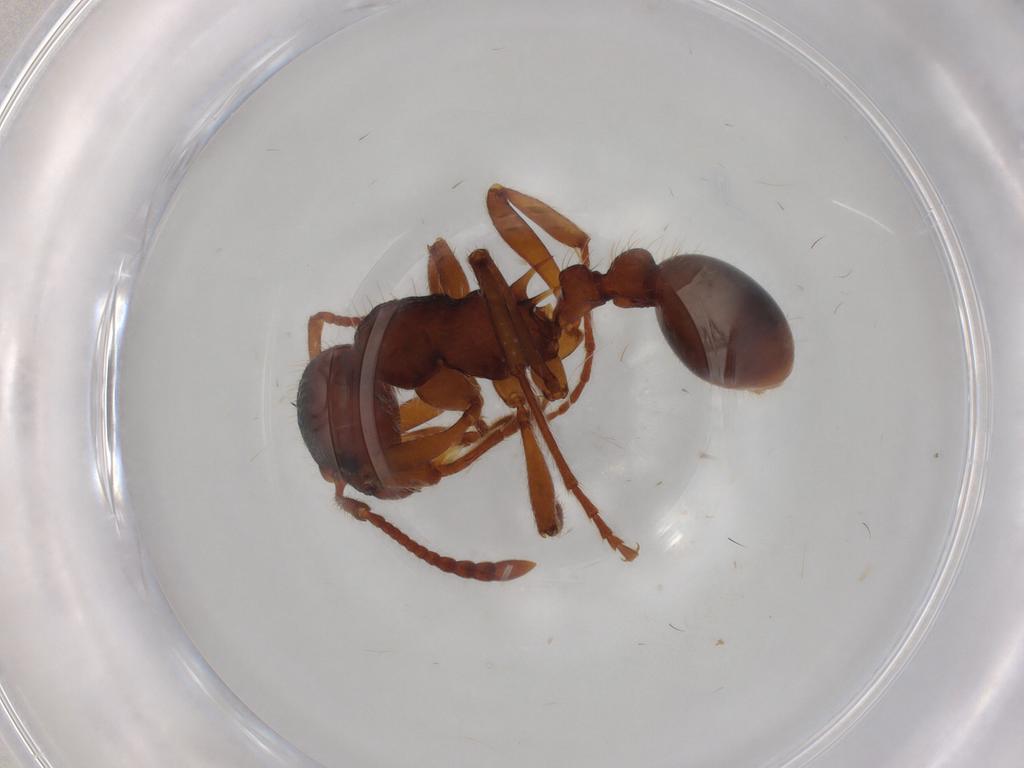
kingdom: Animalia
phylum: Arthropoda
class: Insecta
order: Hymenoptera
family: Formicidae
